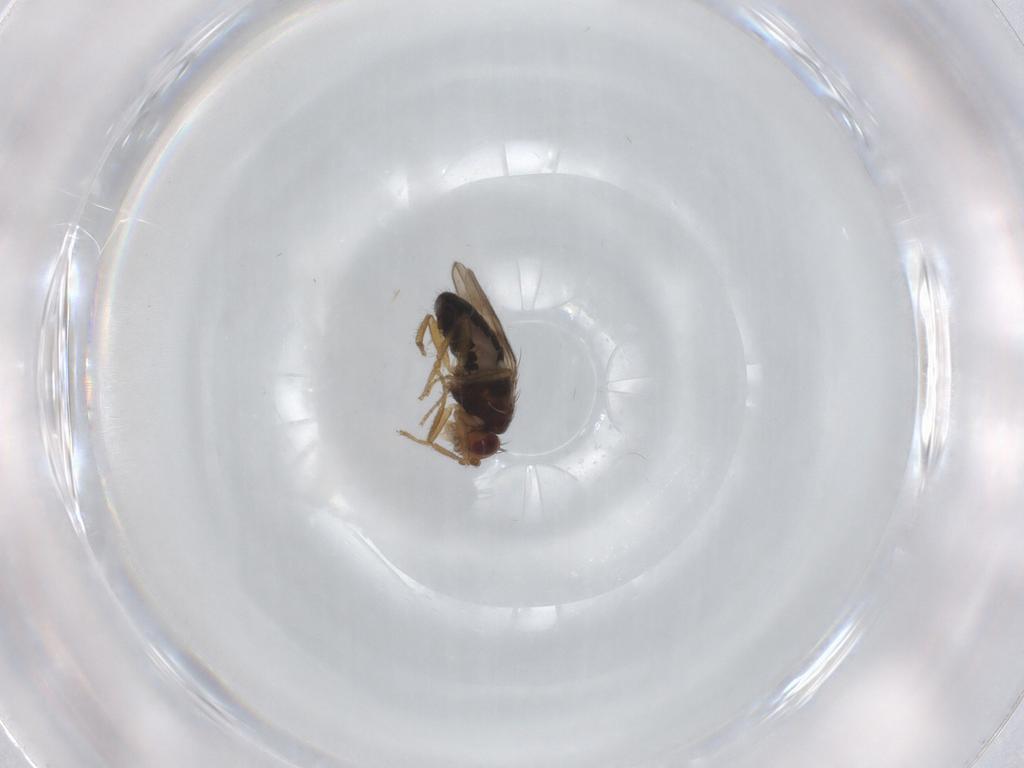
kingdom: Animalia
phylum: Arthropoda
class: Insecta
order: Diptera
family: Sphaeroceridae
